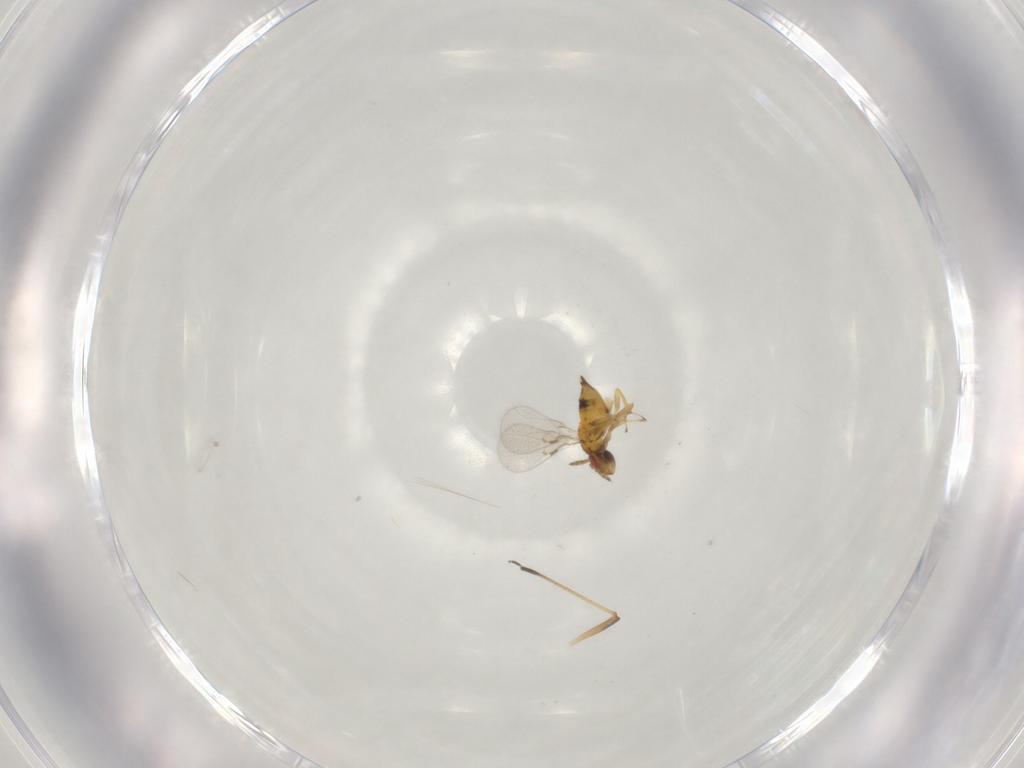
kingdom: Animalia
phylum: Arthropoda
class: Insecta
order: Hymenoptera
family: Trichogrammatidae
